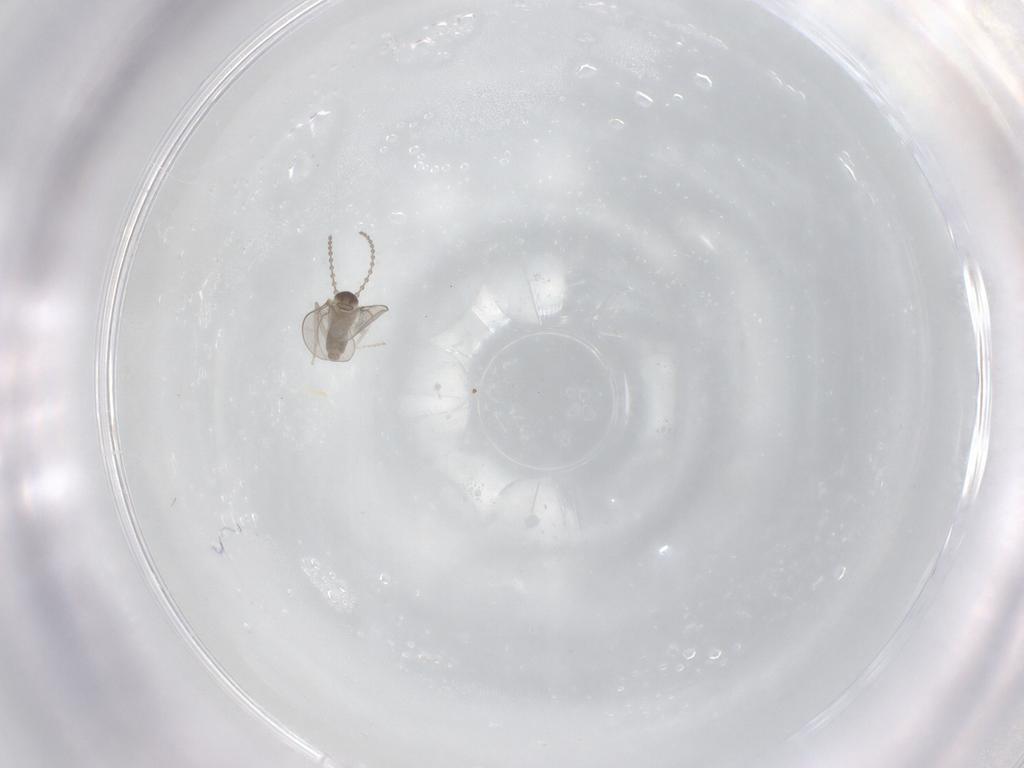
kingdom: Animalia
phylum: Arthropoda
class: Insecta
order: Diptera
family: Cecidomyiidae
